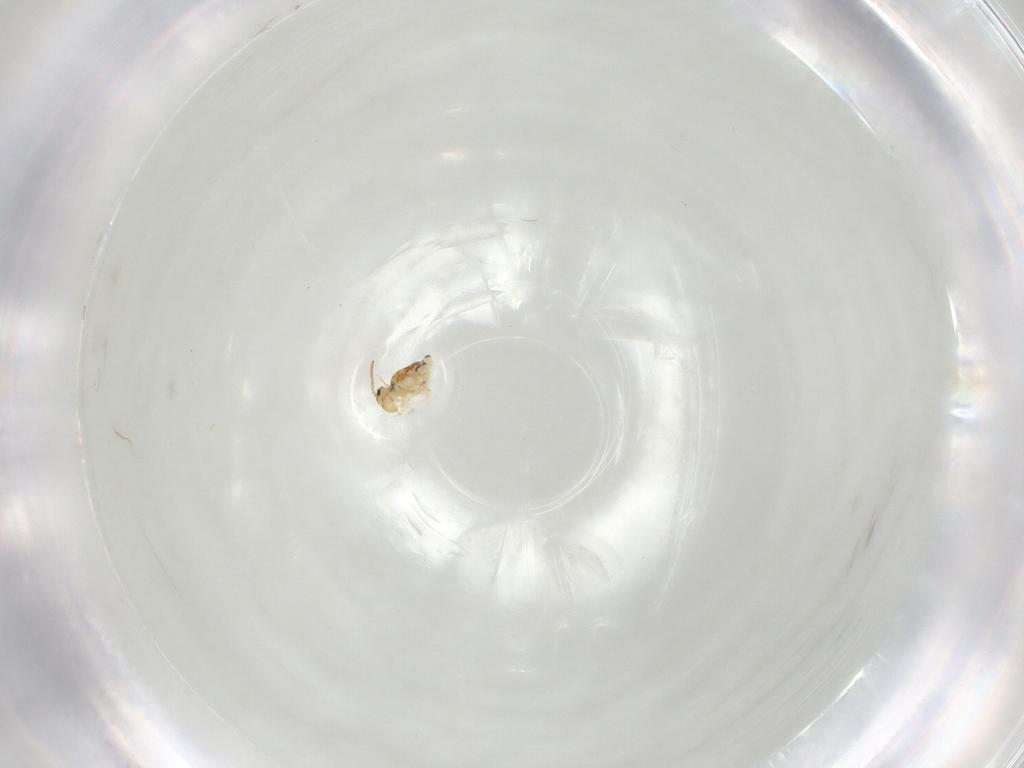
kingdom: Animalia
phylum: Arthropoda
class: Collembola
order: Symphypleona
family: Bourletiellidae
